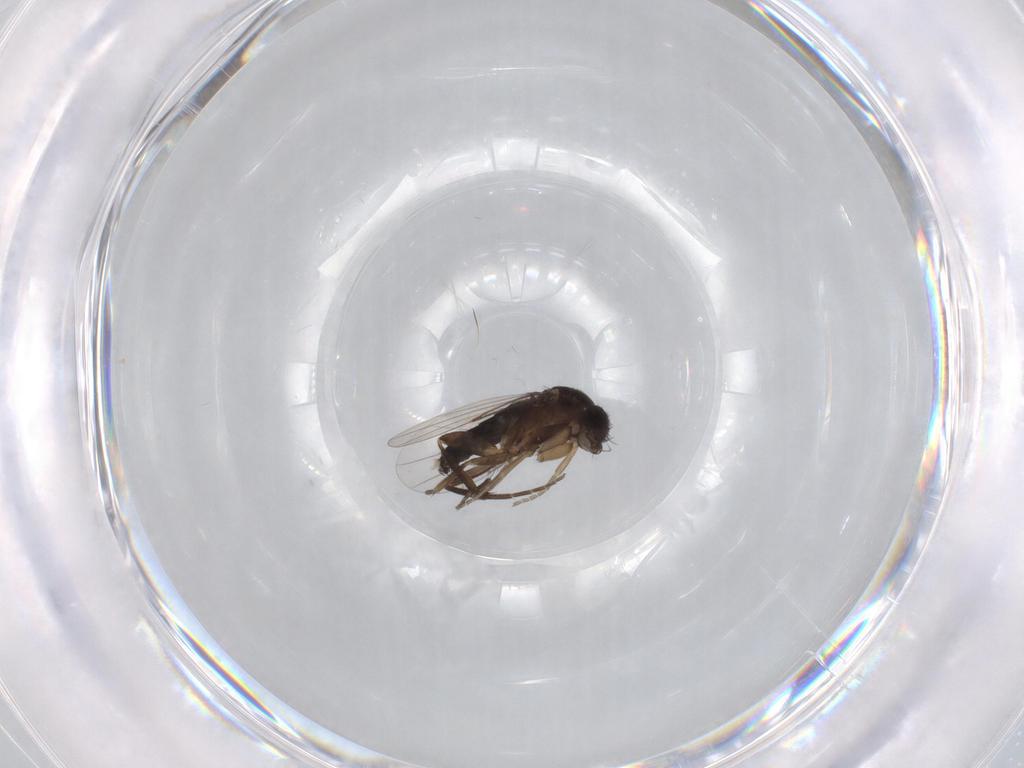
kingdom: Animalia
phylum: Arthropoda
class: Insecta
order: Diptera
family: Phoridae
